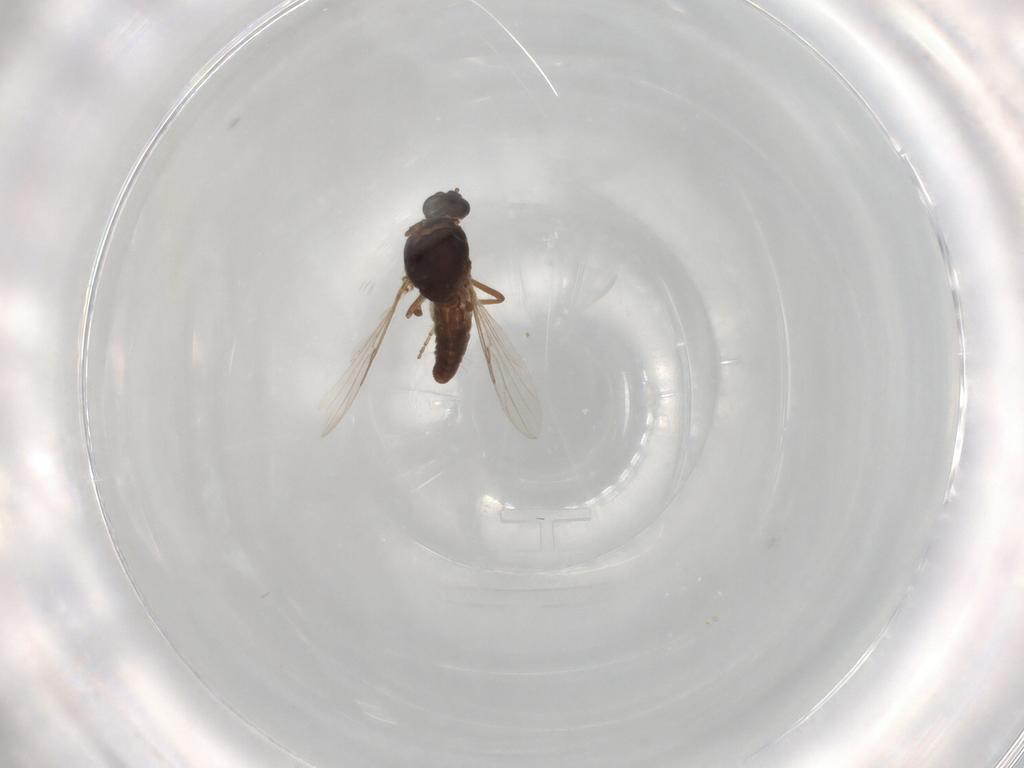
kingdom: Animalia
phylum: Arthropoda
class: Insecta
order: Diptera
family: Ceratopogonidae
